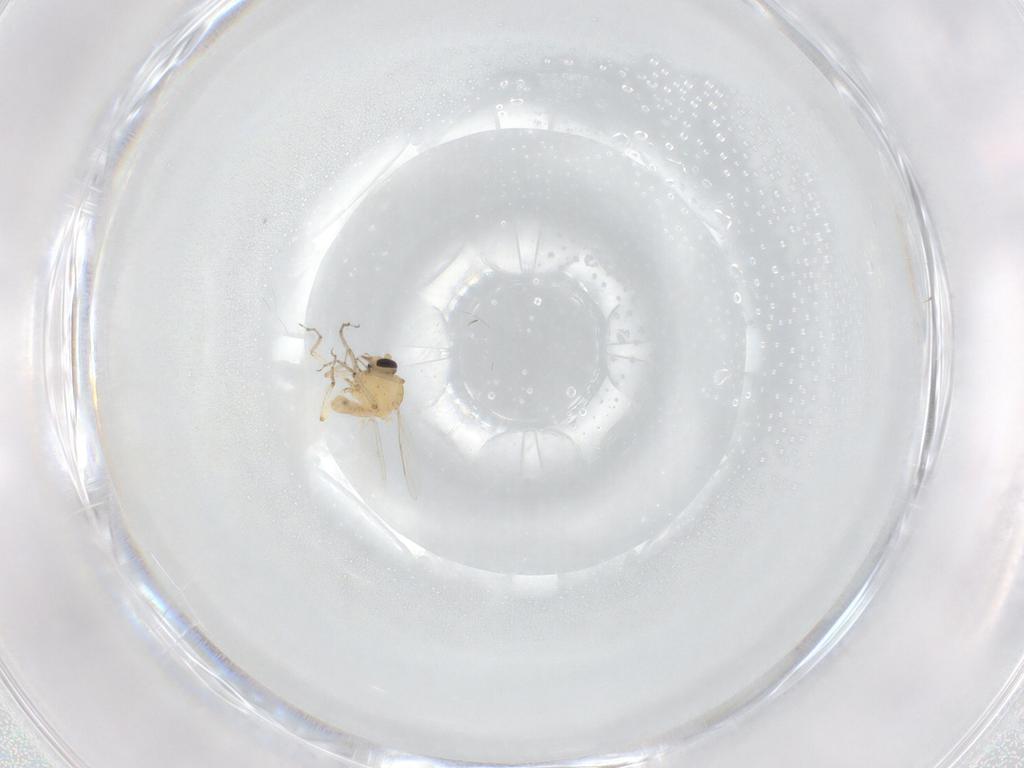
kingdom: Animalia
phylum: Arthropoda
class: Insecta
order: Diptera
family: Ceratopogonidae
